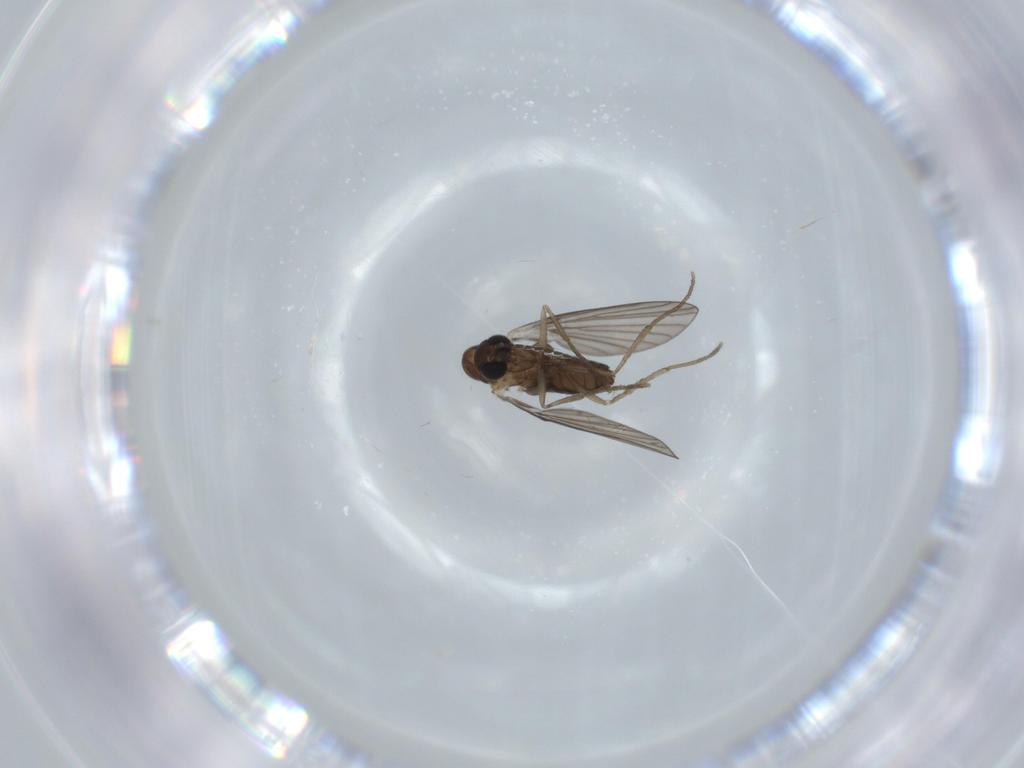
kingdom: Animalia
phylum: Arthropoda
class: Insecta
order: Diptera
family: Psychodidae
